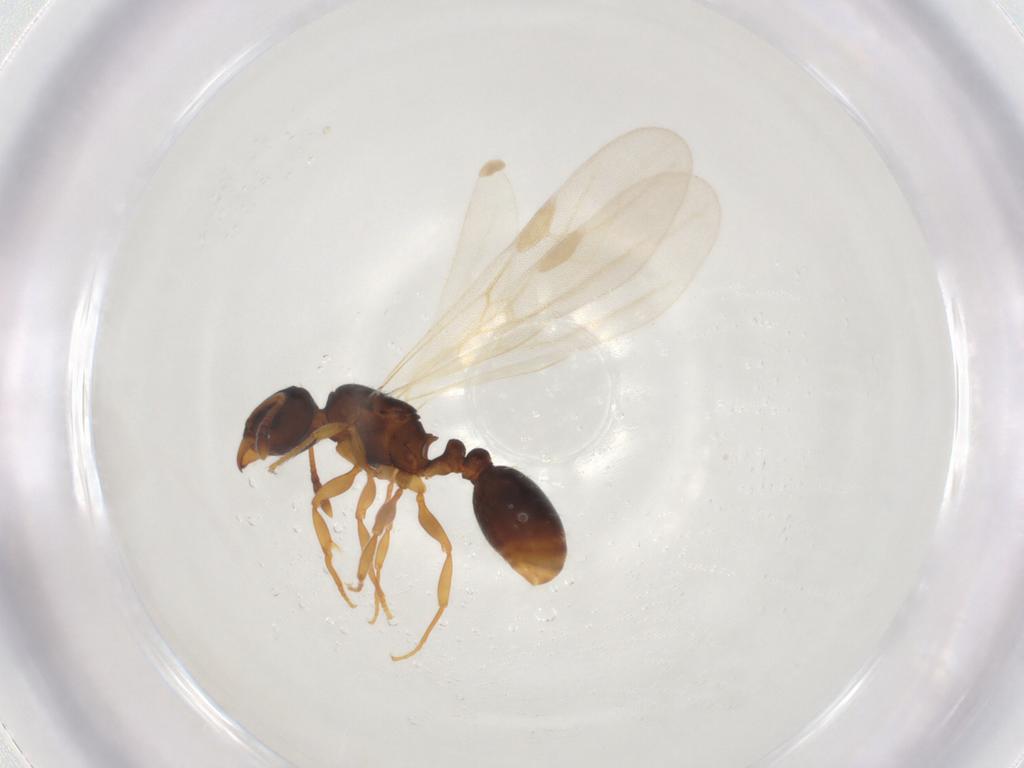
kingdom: Animalia
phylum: Arthropoda
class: Insecta
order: Hymenoptera
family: Formicidae
